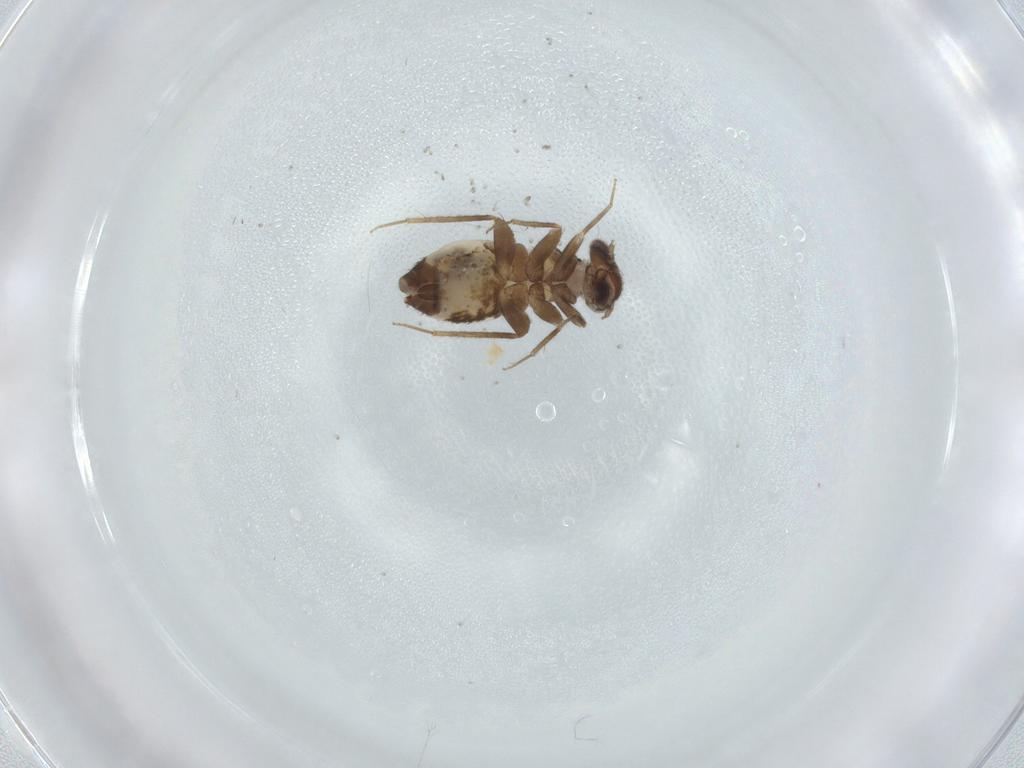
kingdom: Animalia
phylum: Arthropoda
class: Insecta
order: Psocodea
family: Lepidopsocidae
